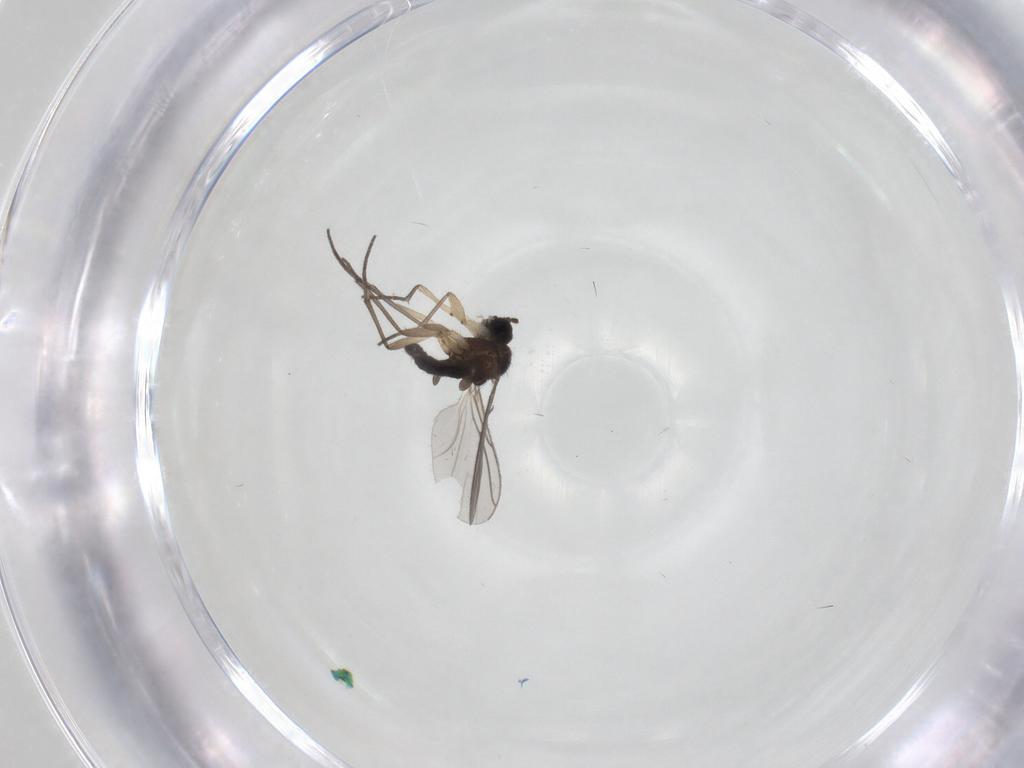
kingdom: Animalia
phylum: Arthropoda
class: Insecta
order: Diptera
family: Sciaridae
